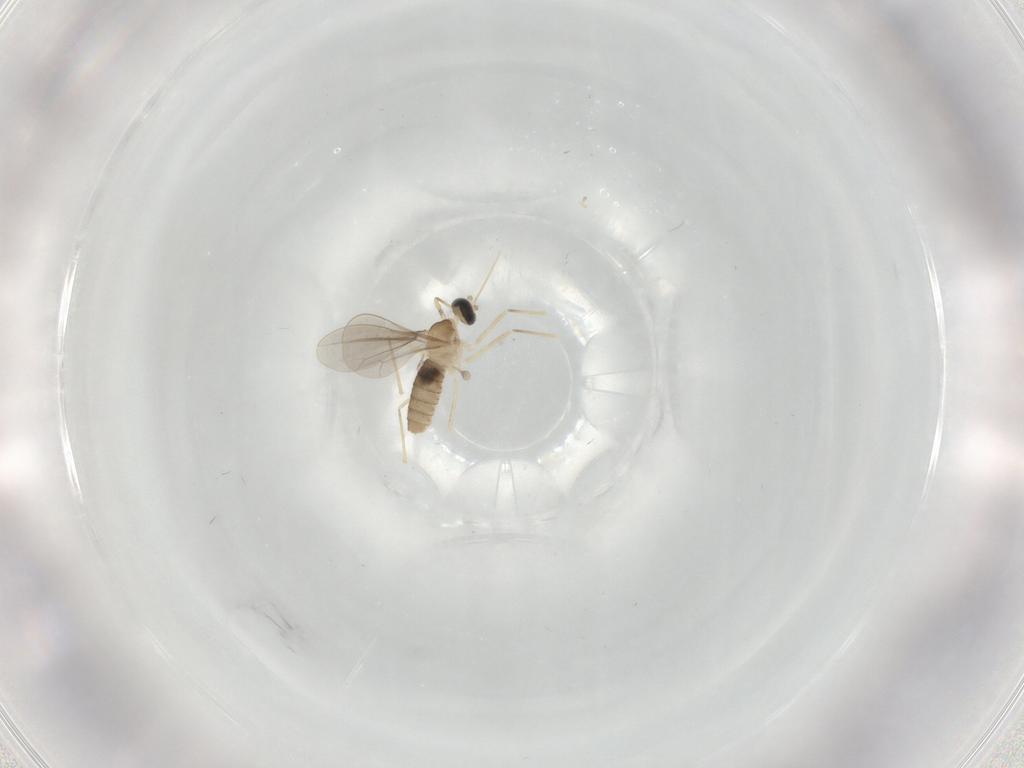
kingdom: Animalia
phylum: Arthropoda
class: Insecta
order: Diptera
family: Cecidomyiidae
